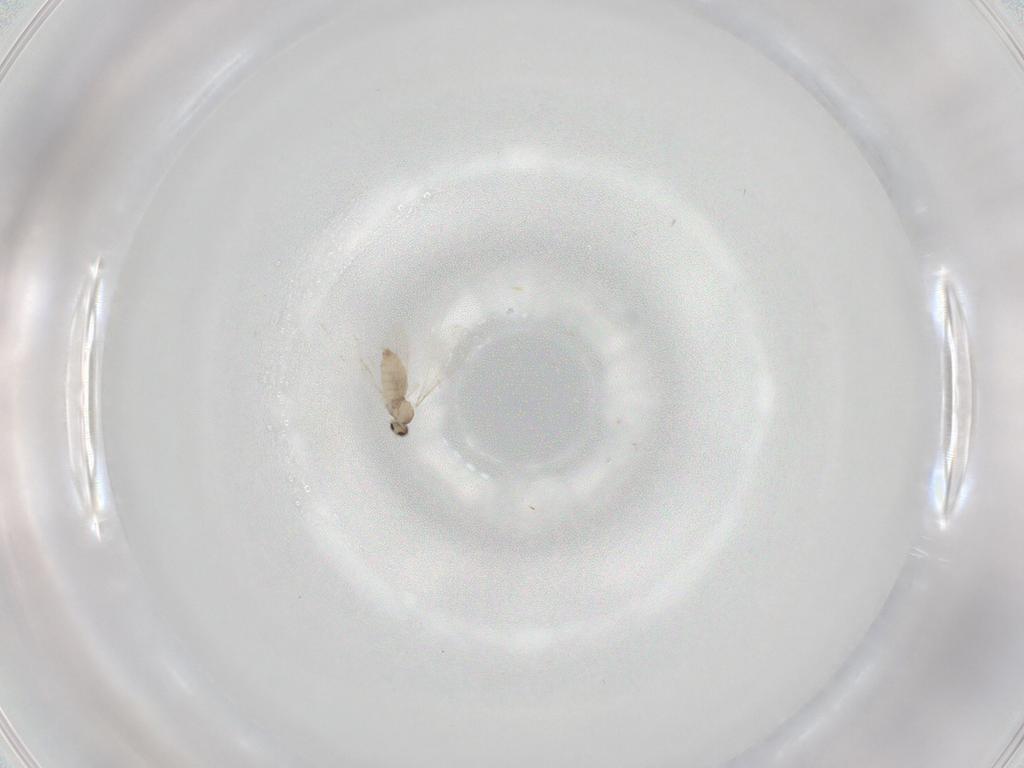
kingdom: Animalia
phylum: Arthropoda
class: Insecta
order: Diptera
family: Cecidomyiidae
